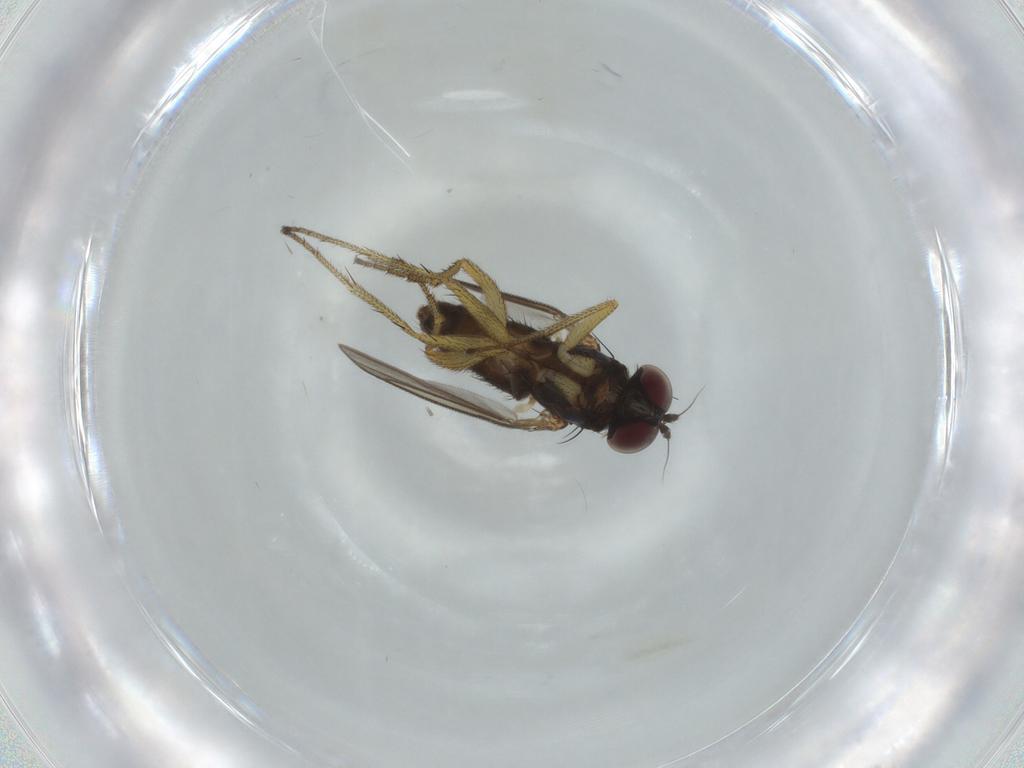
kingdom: Animalia
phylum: Arthropoda
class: Insecta
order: Diptera
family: Dolichopodidae
